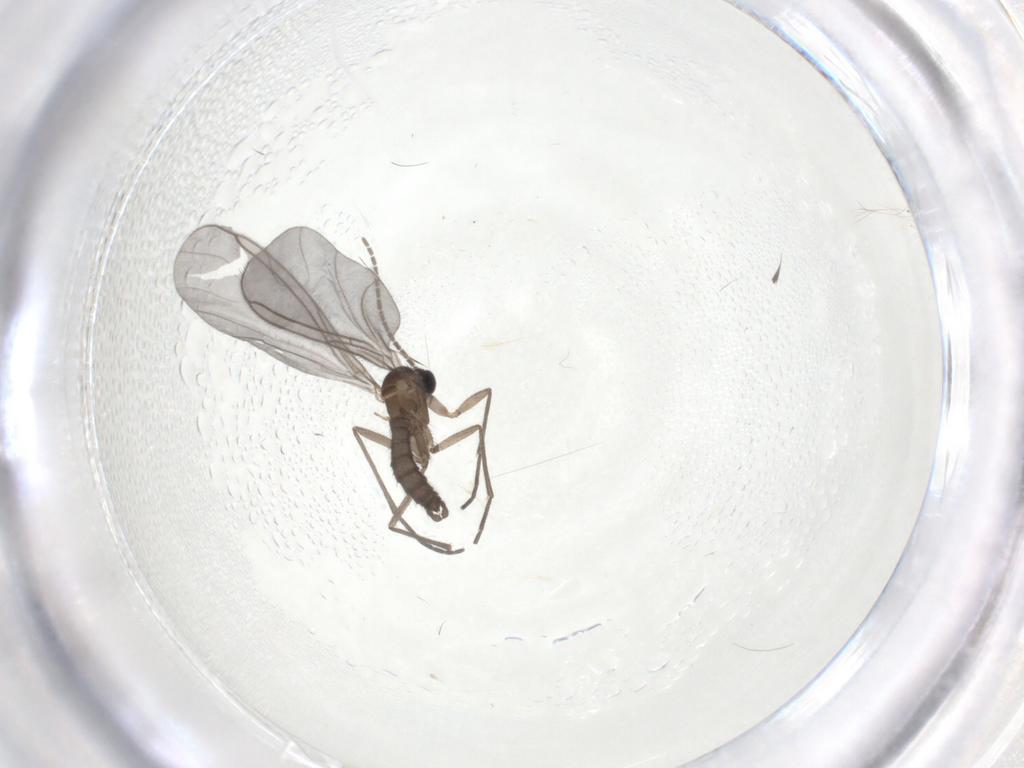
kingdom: Animalia
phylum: Arthropoda
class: Insecta
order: Diptera
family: Sciaridae
